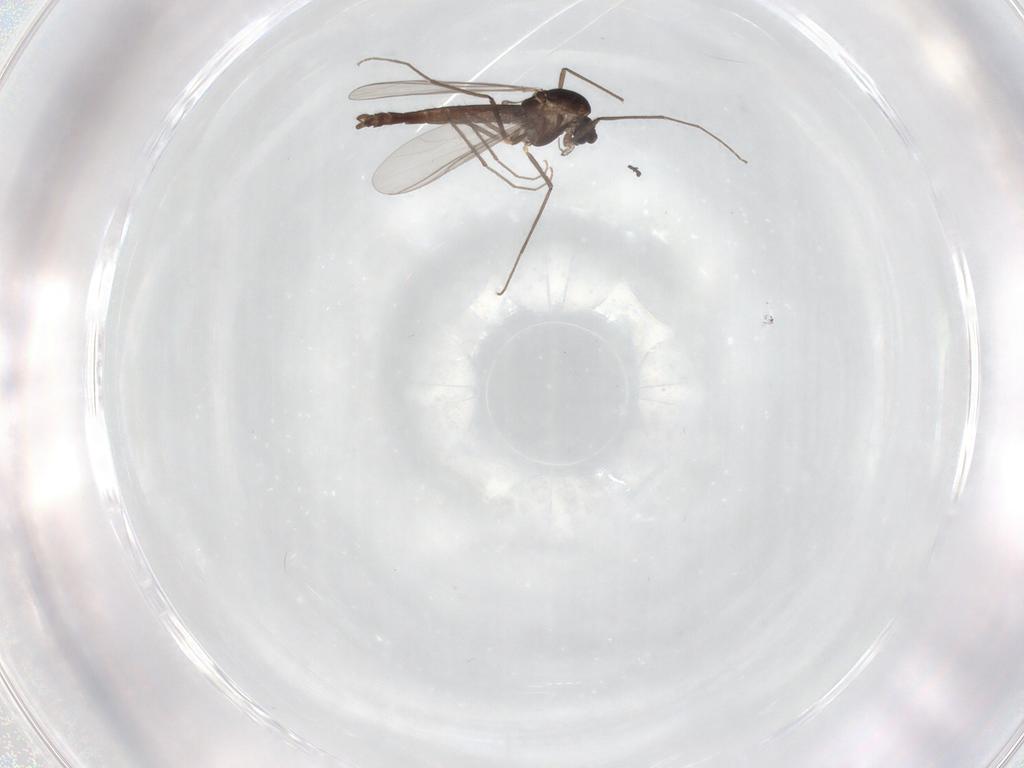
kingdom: Animalia
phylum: Arthropoda
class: Insecta
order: Diptera
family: Chironomidae
